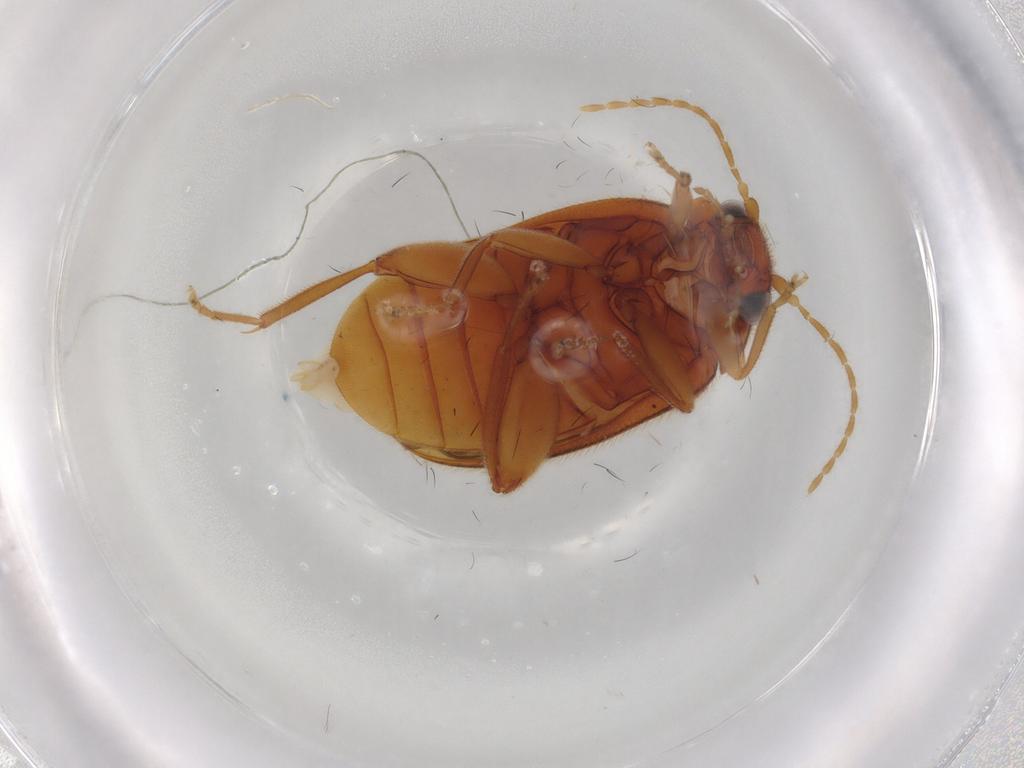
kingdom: Animalia
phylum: Arthropoda
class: Insecta
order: Coleoptera
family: Scirtidae
